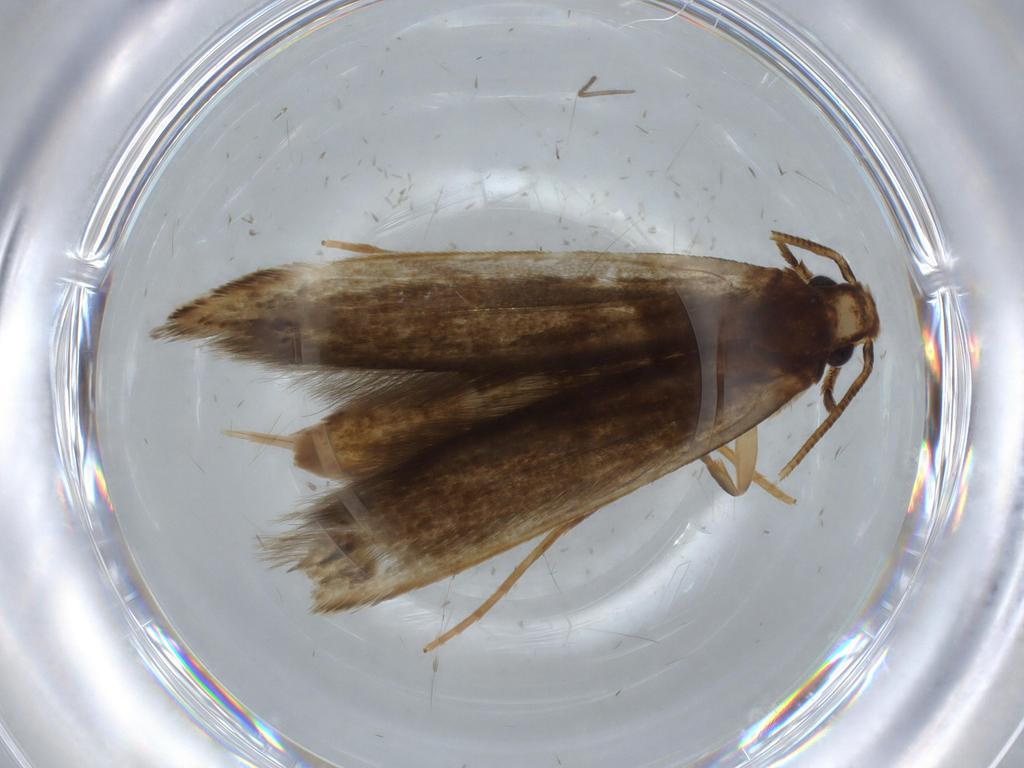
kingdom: Animalia
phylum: Arthropoda
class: Insecta
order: Lepidoptera
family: Tineidae
